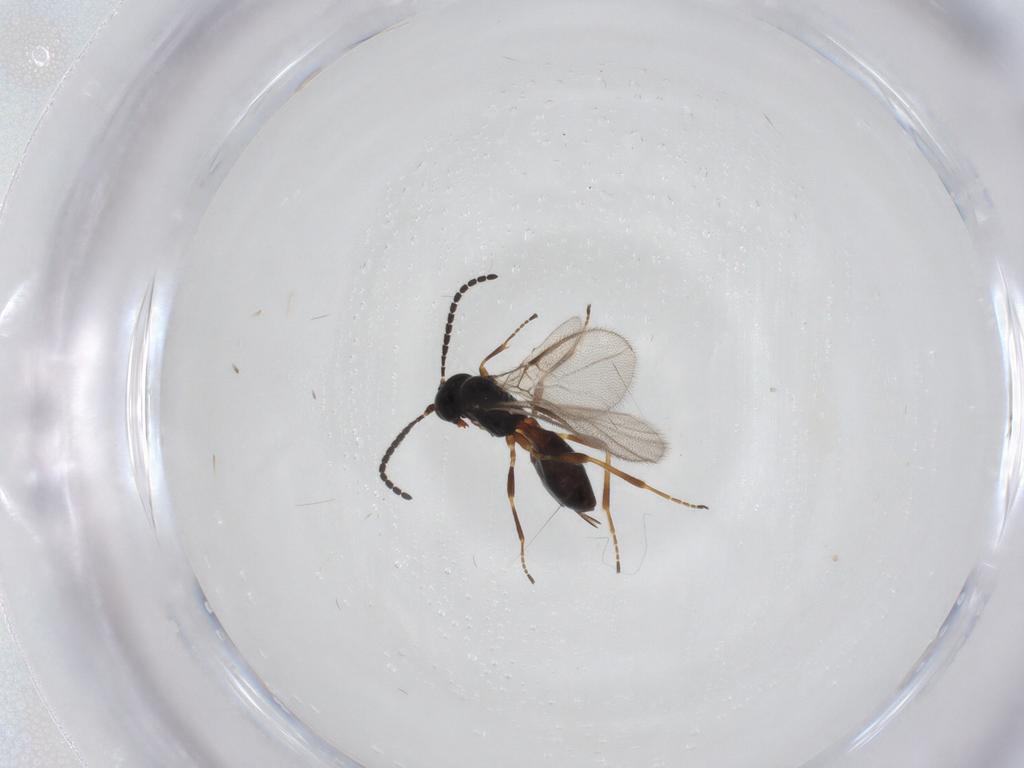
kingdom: Animalia
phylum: Arthropoda
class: Insecta
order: Hymenoptera
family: Braconidae
